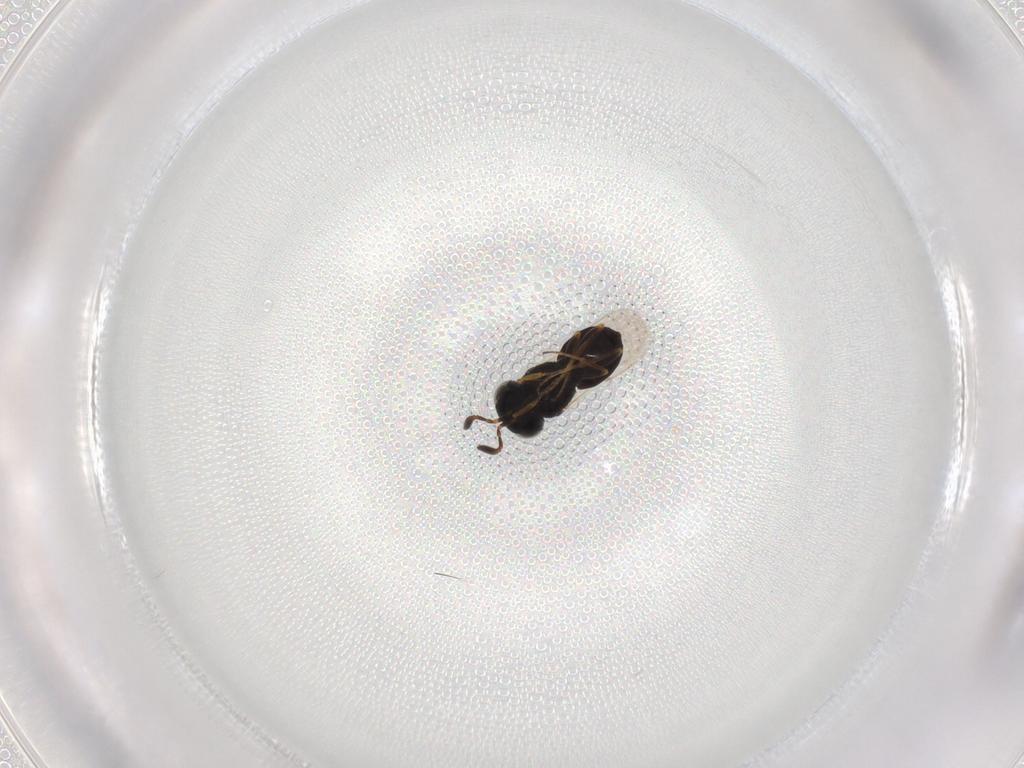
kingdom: Animalia
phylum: Arthropoda
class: Insecta
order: Hymenoptera
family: Scelionidae
